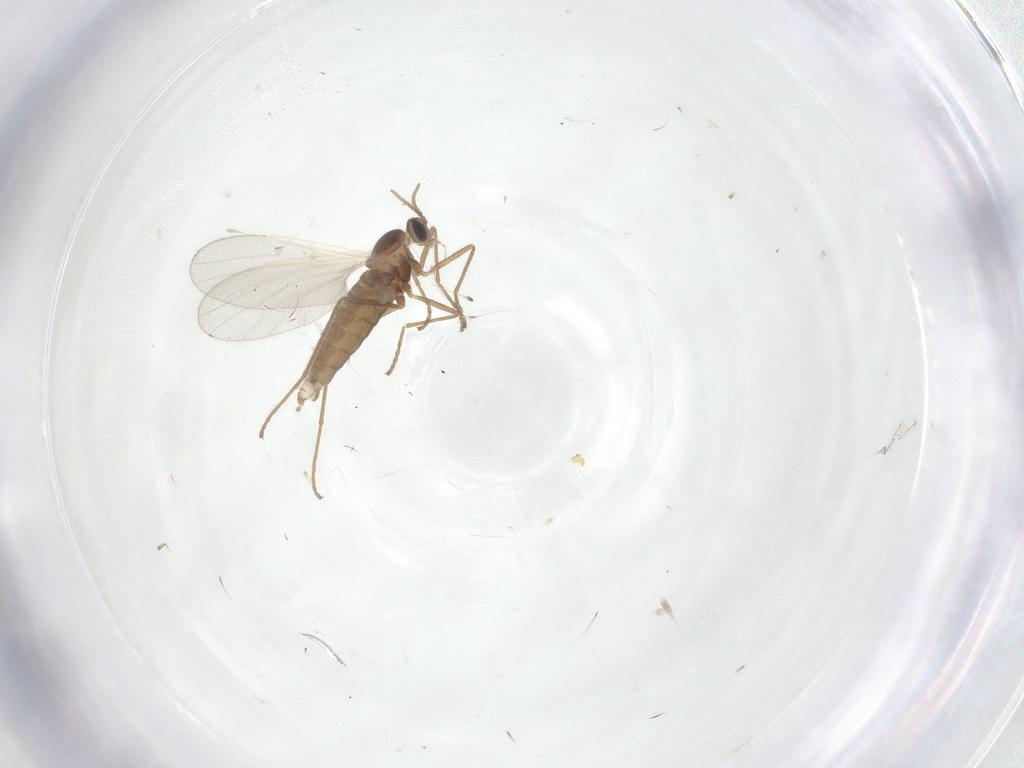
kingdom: Animalia
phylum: Arthropoda
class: Insecta
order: Diptera
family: Cecidomyiidae
